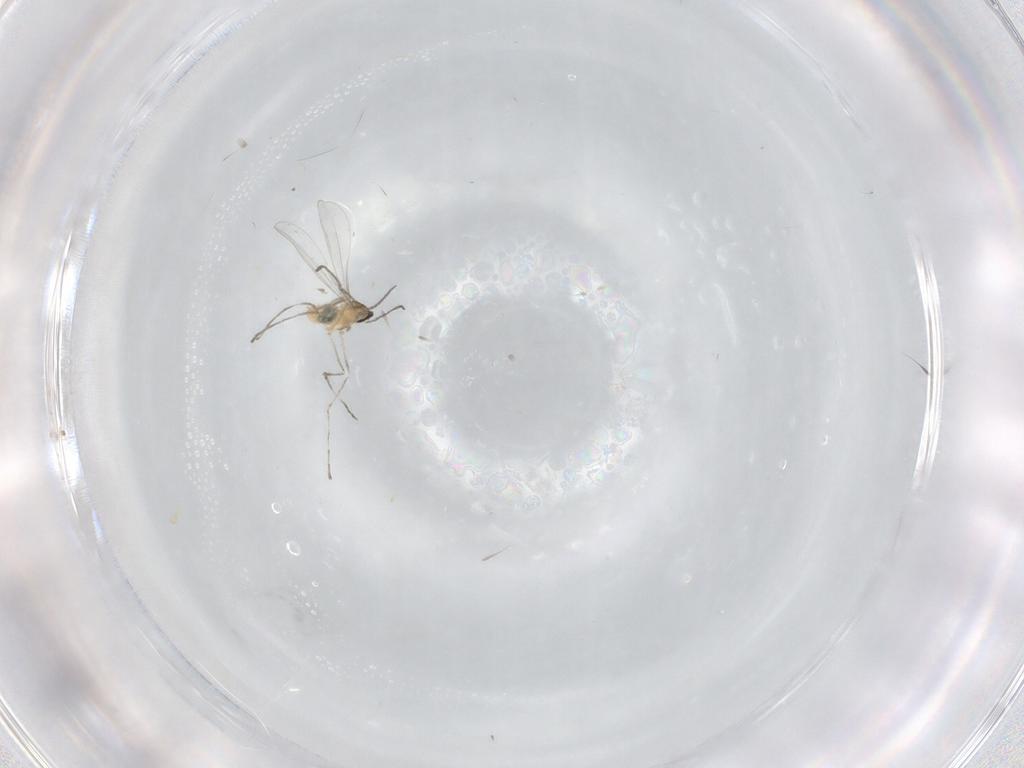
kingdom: Animalia
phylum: Arthropoda
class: Insecta
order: Diptera
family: Cecidomyiidae
